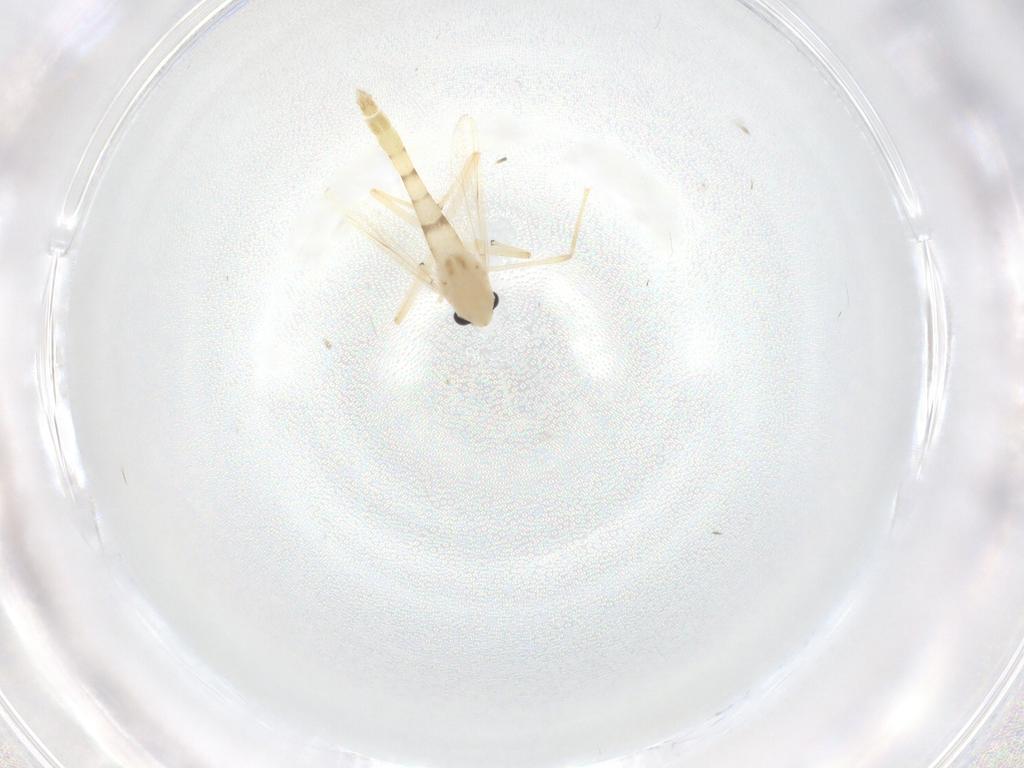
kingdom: Animalia
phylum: Arthropoda
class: Insecta
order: Diptera
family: Chironomidae
